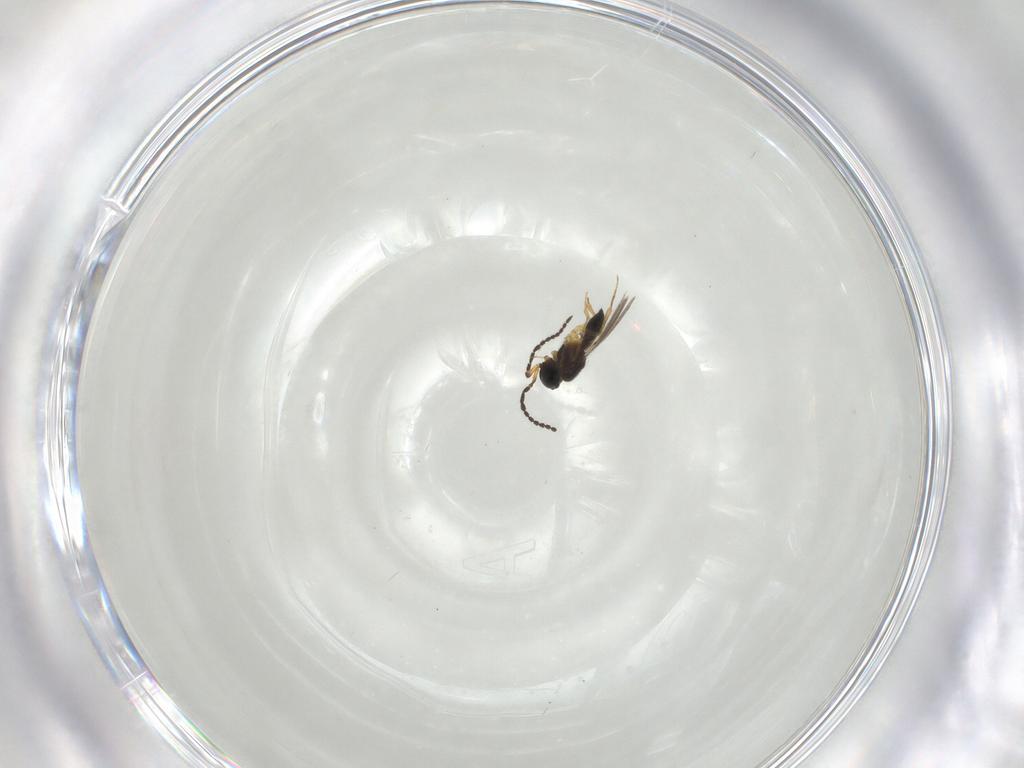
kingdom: Animalia
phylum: Arthropoda
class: Insecta
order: Hymenoptera
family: Scelionidae
